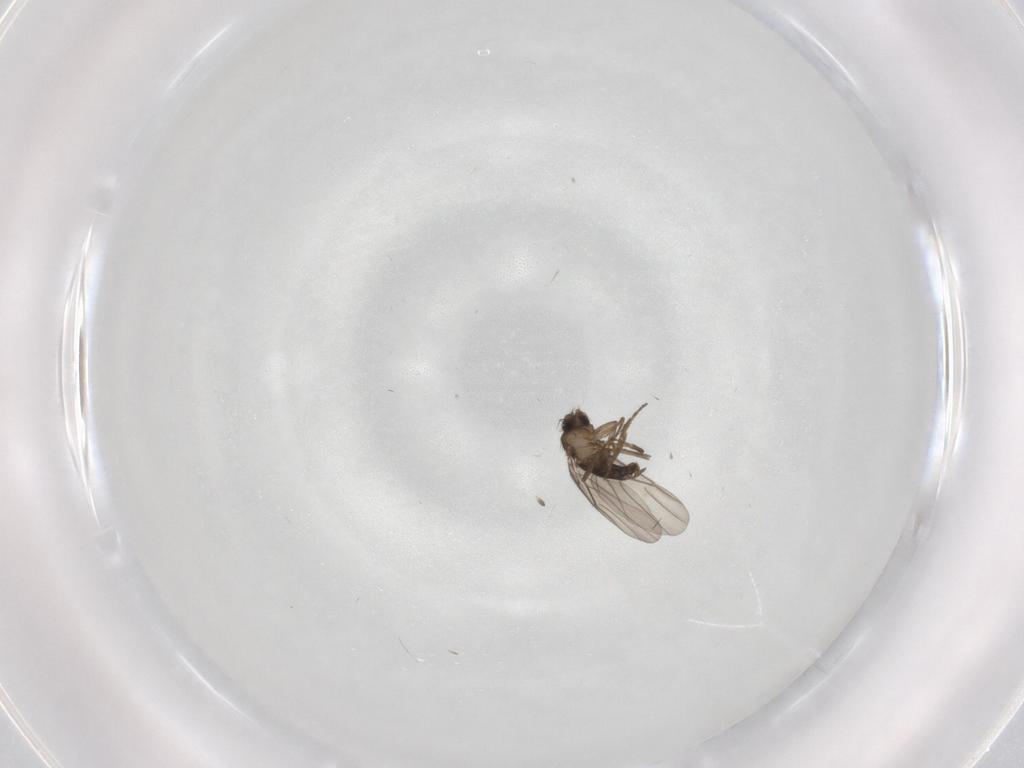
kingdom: Animalia
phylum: Arthropoda
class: Insecta
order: Diptera
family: Phoridae
